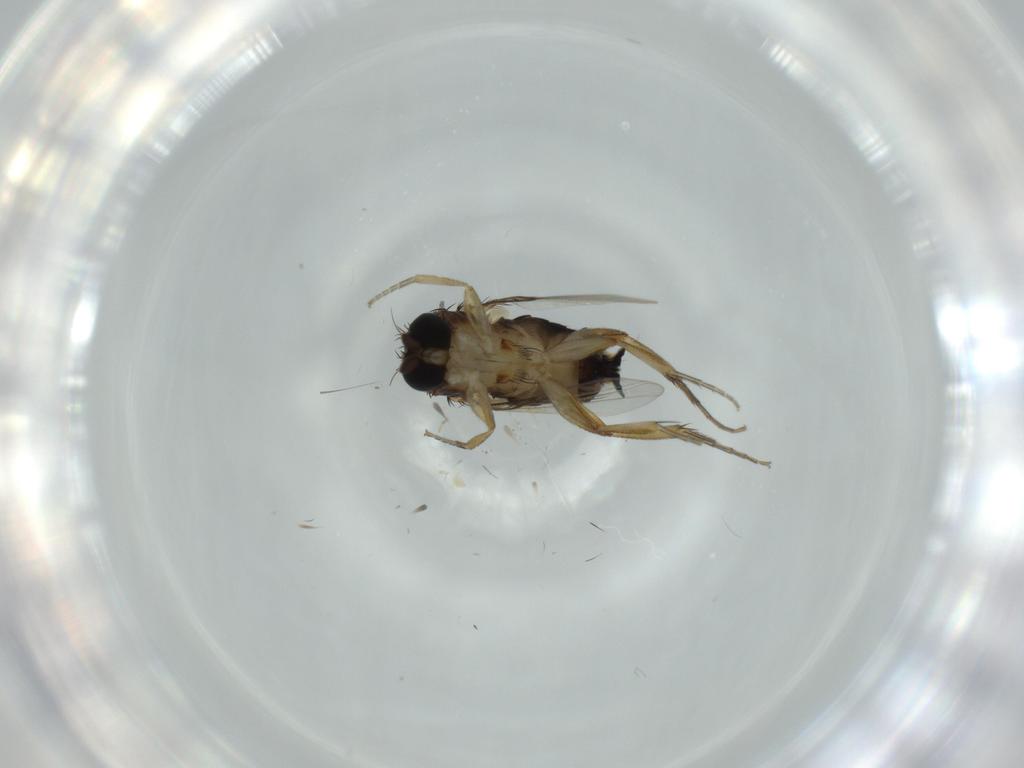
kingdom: Animalia
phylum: Arthropoda
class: Insecta
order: Diptera
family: Phoridae
